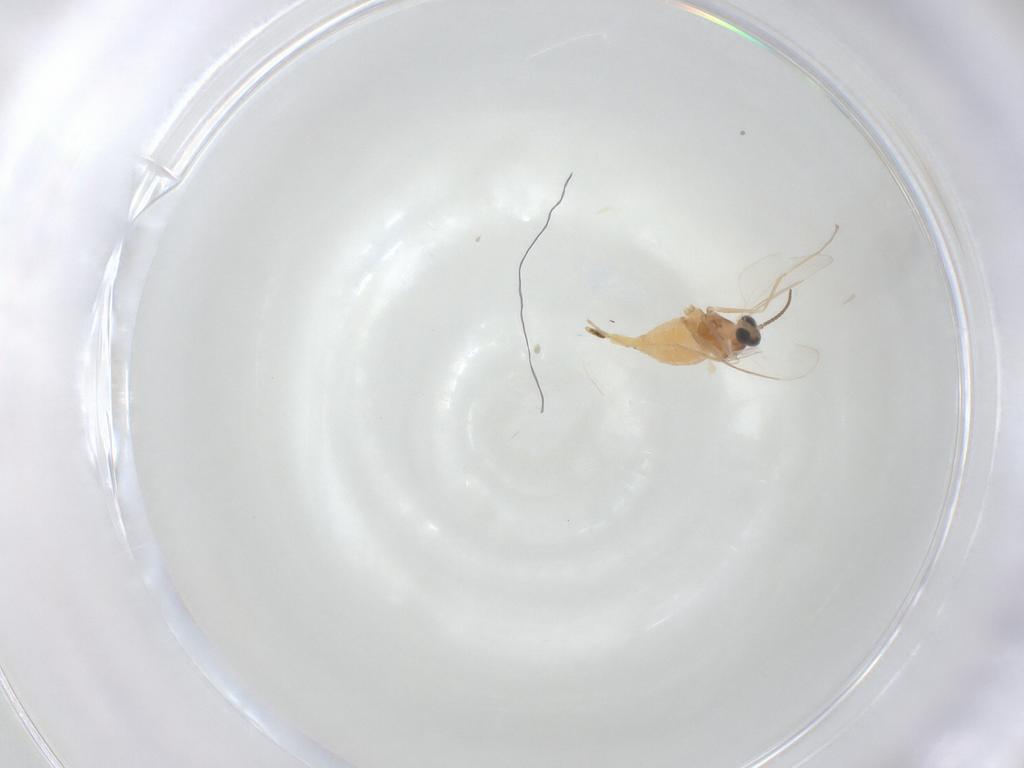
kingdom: Animalia
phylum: Arthropoda
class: Insecta
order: Diptera
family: Cecidomyiidae
